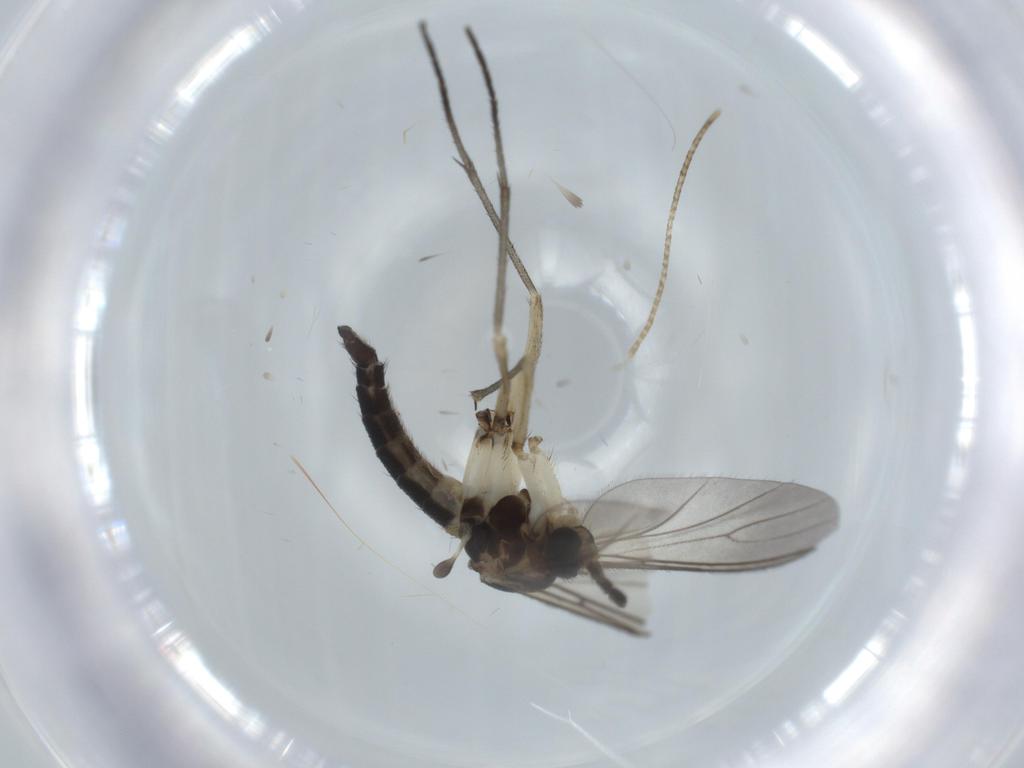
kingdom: Animalia
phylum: Arthropoda
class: Insecta
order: Diptera
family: Sciaridae
